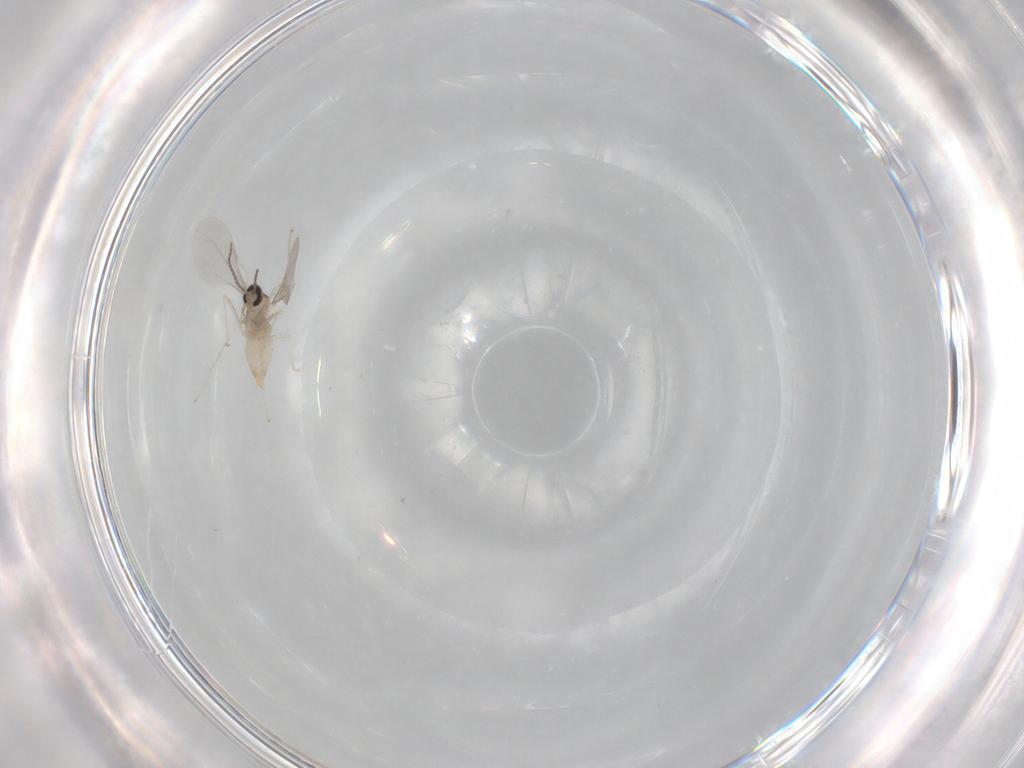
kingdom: Animalia
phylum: Arthropoda
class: Insecta
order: Diptera
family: Cecidomyiidae
